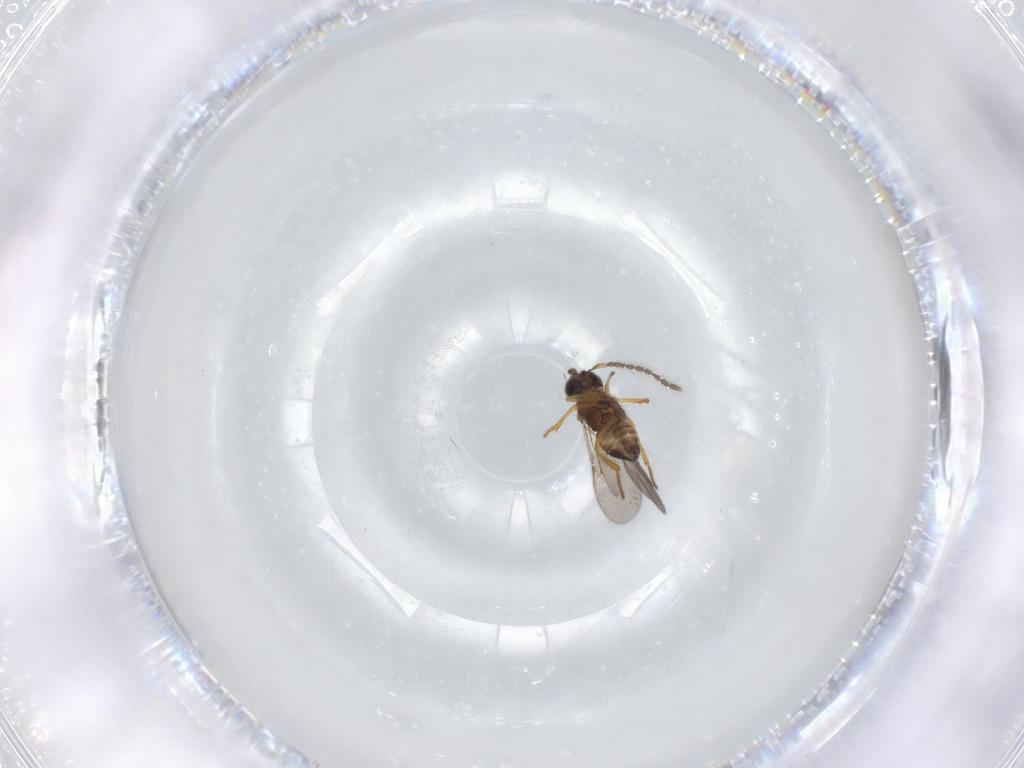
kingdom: Animalia
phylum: Arthropoda
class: Insecta
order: Hymenoptera
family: Encyrtidae
